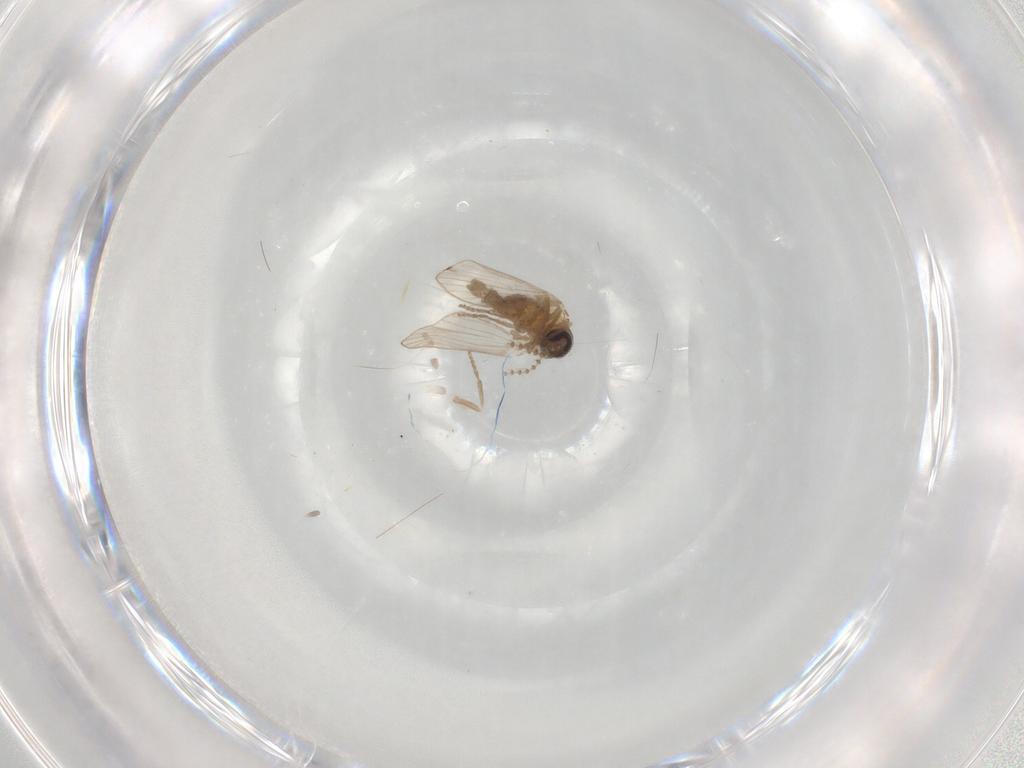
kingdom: Animalia
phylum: Arthropoda
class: Insecta
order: Diptera
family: Psychodidae
